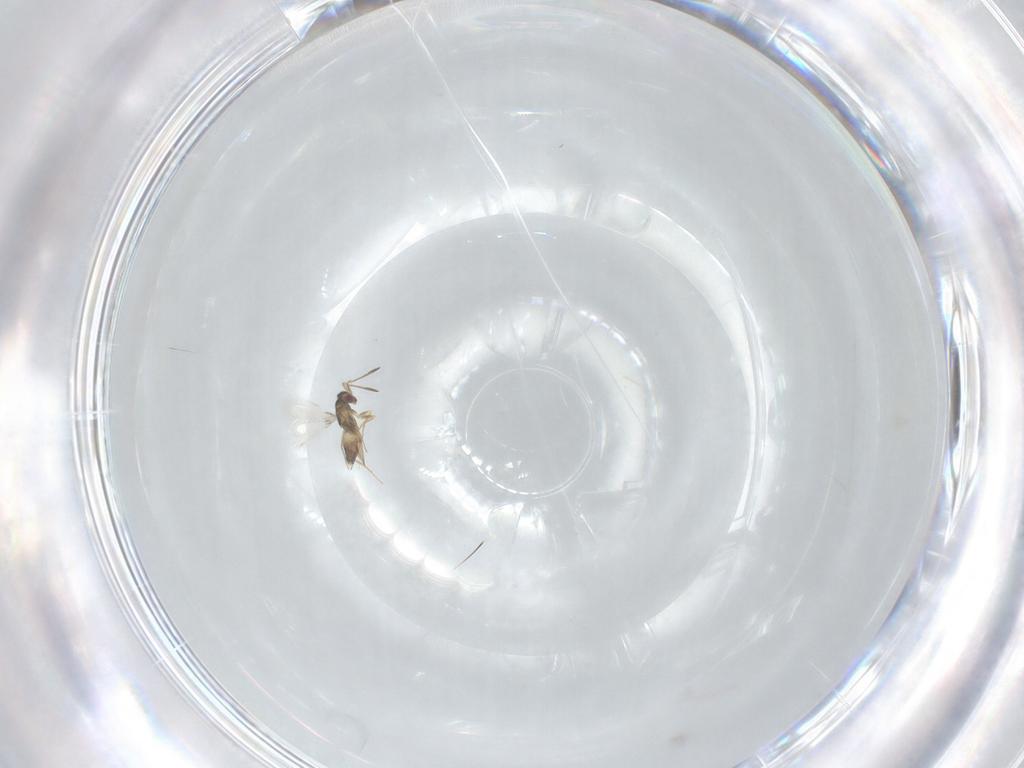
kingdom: Animalia
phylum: Arthropoda
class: Insecta
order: Hymenoptera
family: Mymaridae
